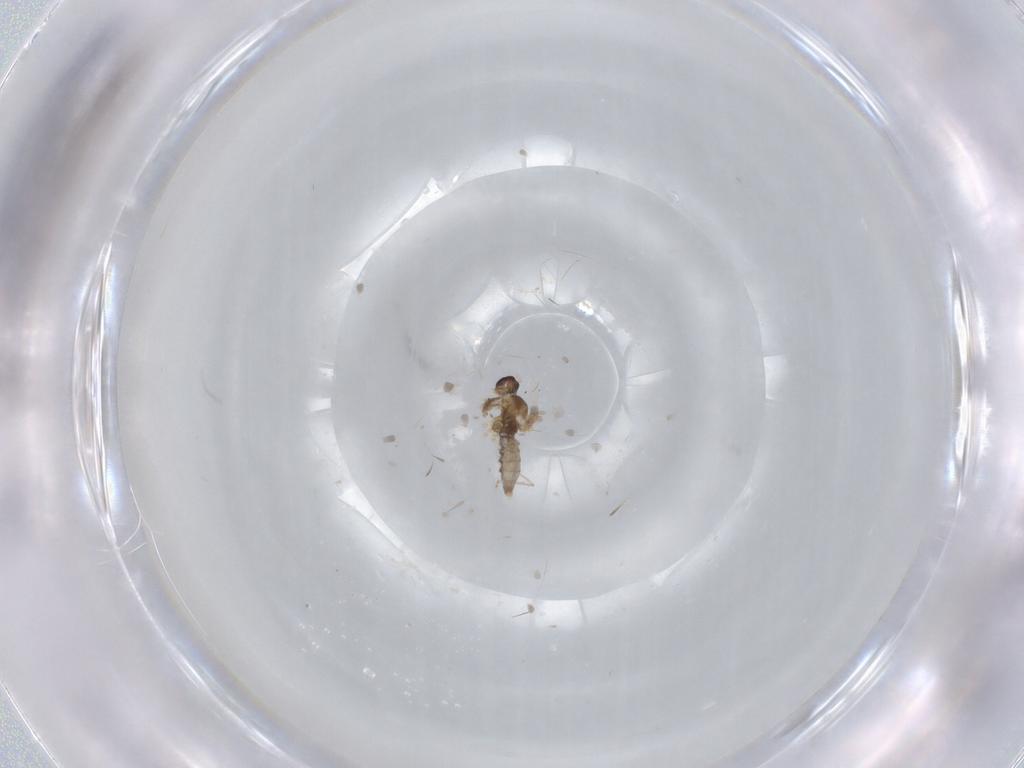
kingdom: Animalia
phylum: Arthropoda
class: Insecta
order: Diptera
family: Cecidomyiidae
